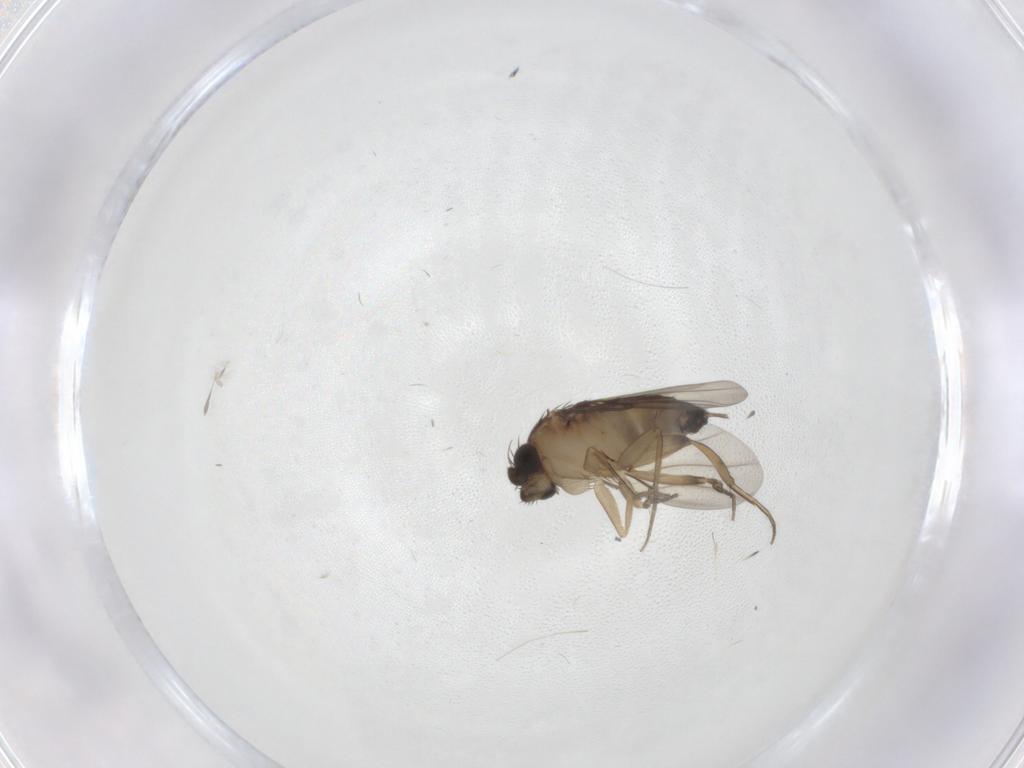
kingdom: Animalia
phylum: Arthropoda
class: Insecta
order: Diptera
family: Phoridae
